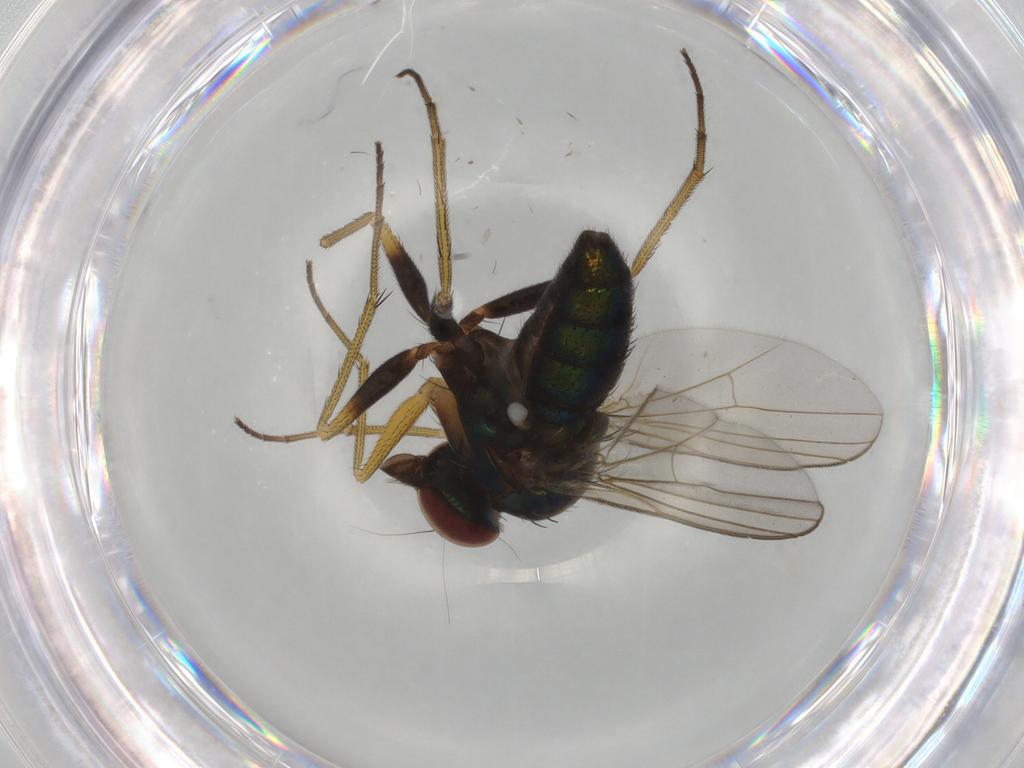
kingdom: Animalia
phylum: Arthropoda
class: Insecta
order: Diptera
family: Dolichopodidae
